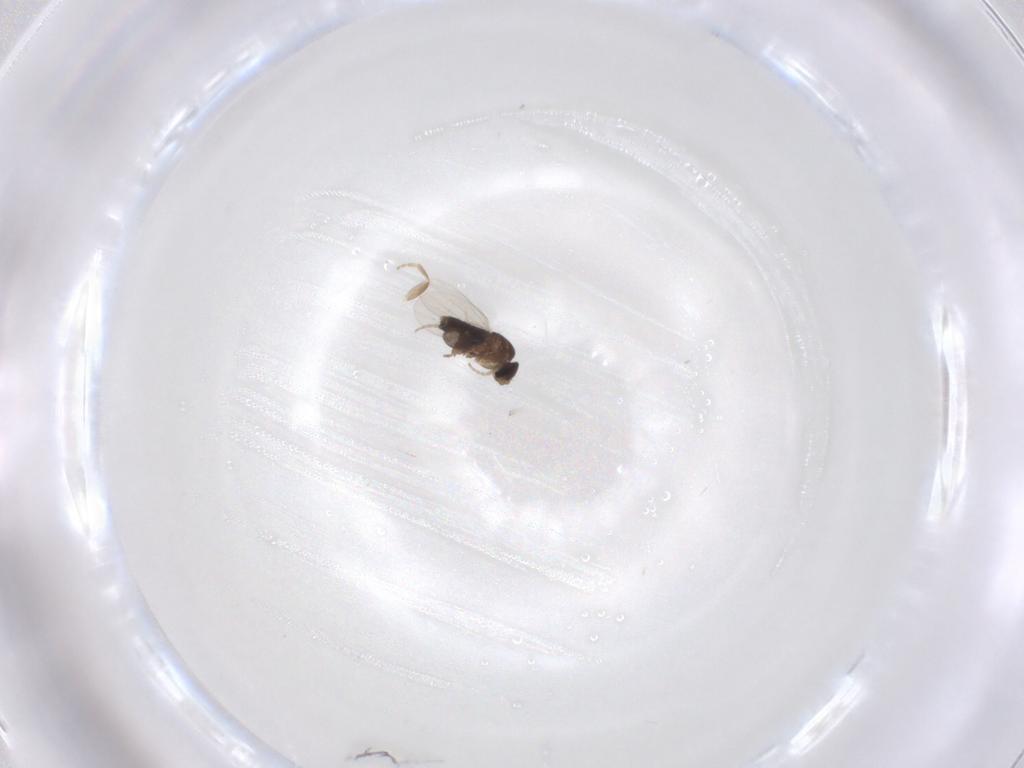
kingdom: Animalia
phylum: Arthropoda
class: Insecta
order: Diptera
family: Phoridae
